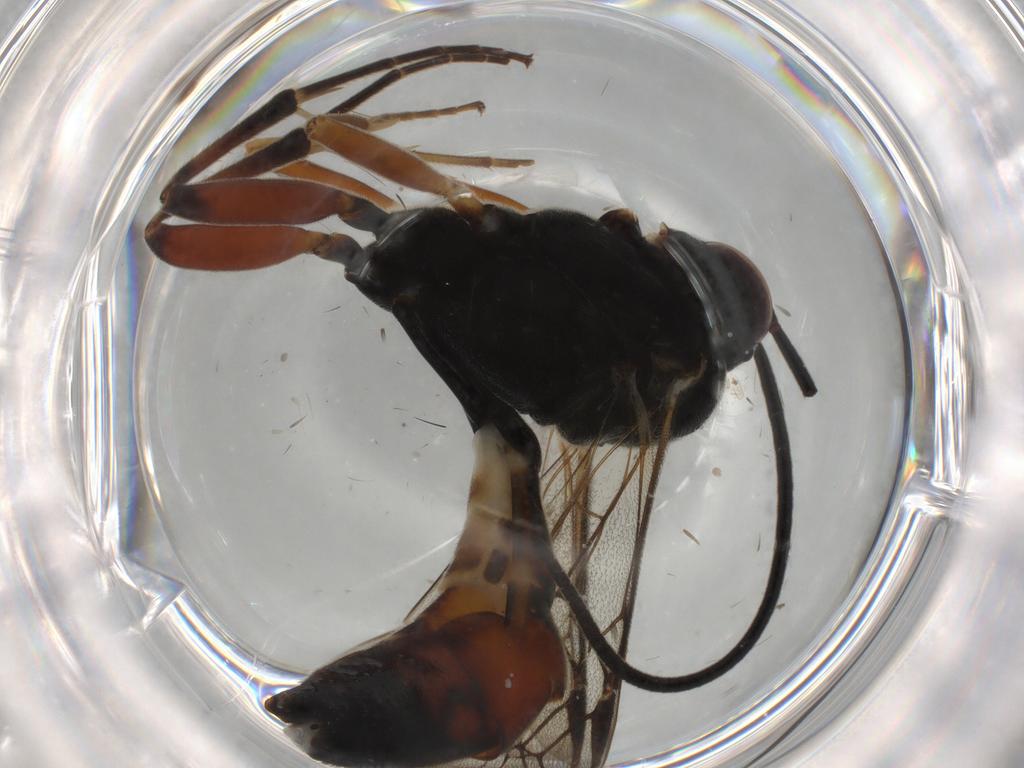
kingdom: Animalia
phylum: Arthropoda
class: Insecta
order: Hymenoptera
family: Ichneumonidae
